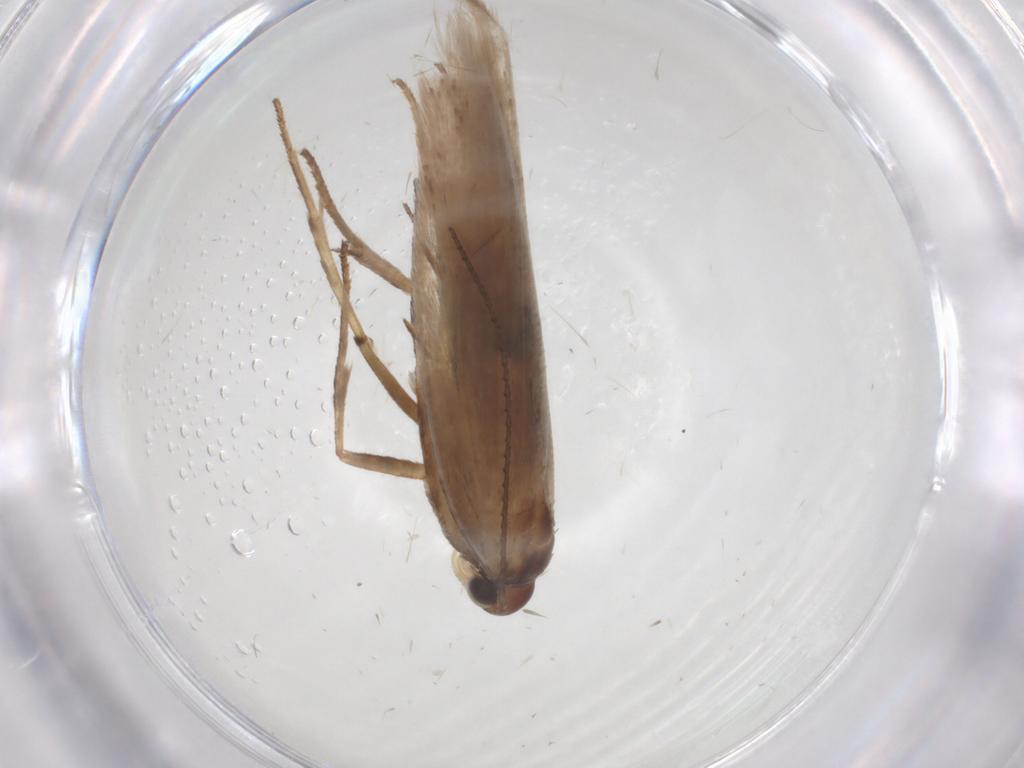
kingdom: Animalia
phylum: Arthropoda
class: Insecta
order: Lepidoptera
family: Gelechiidae
